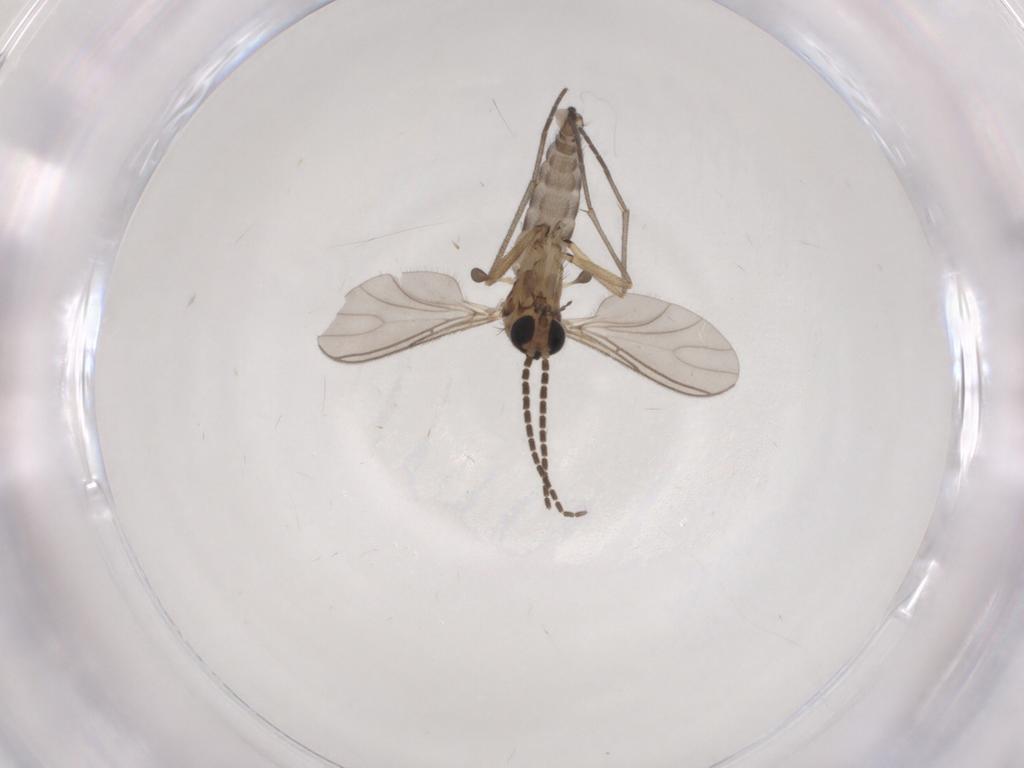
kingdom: Animalia
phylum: Arthropoda
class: Insecta
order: Diptera
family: Sciaridae
